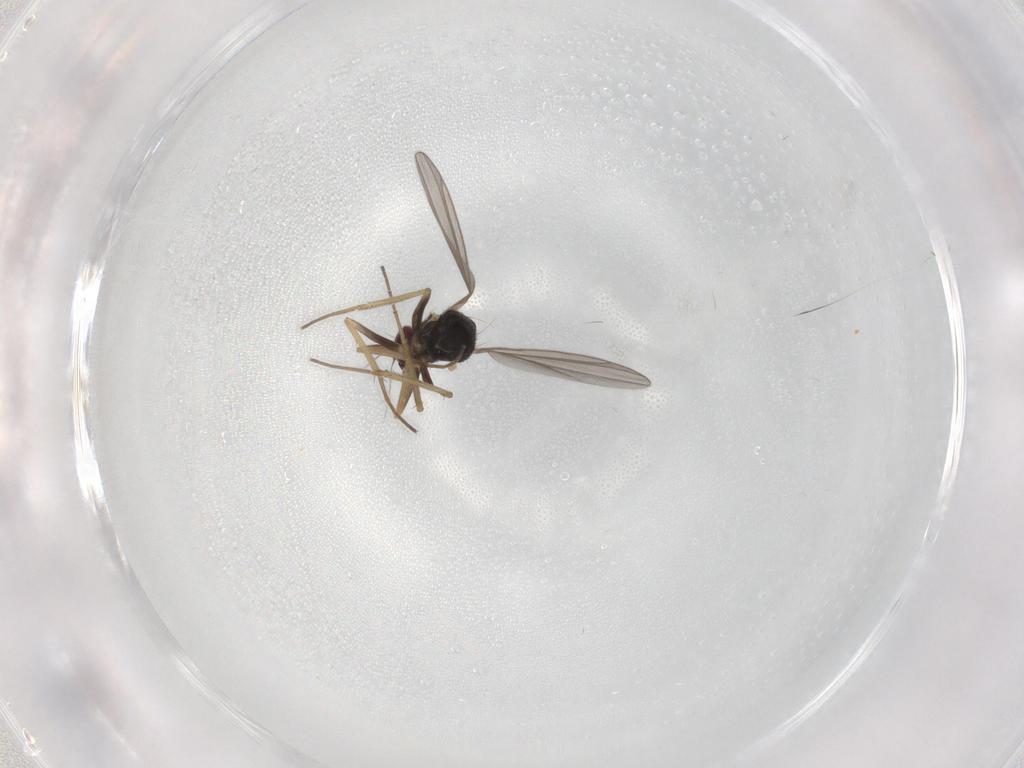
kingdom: Animalia
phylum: Arthropoda
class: Insecta
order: Diptera
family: Dolichopodidae
